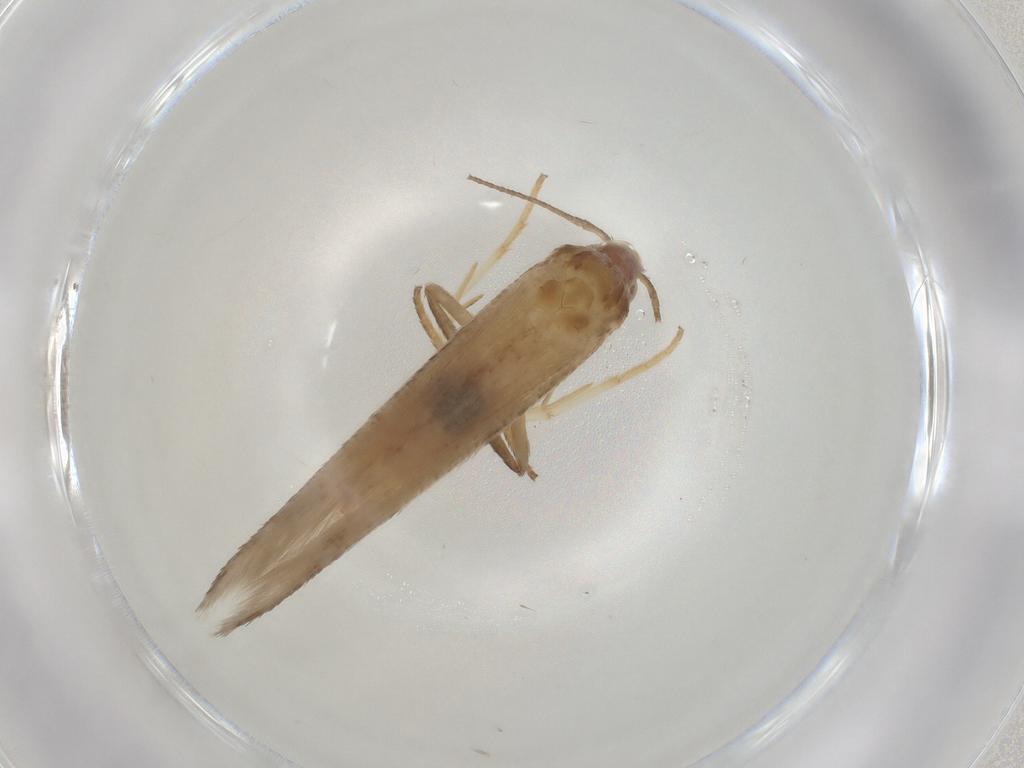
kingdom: Animalia
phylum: Arthropoda
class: Insecta
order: Lepidoptera
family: Gelechiidae
